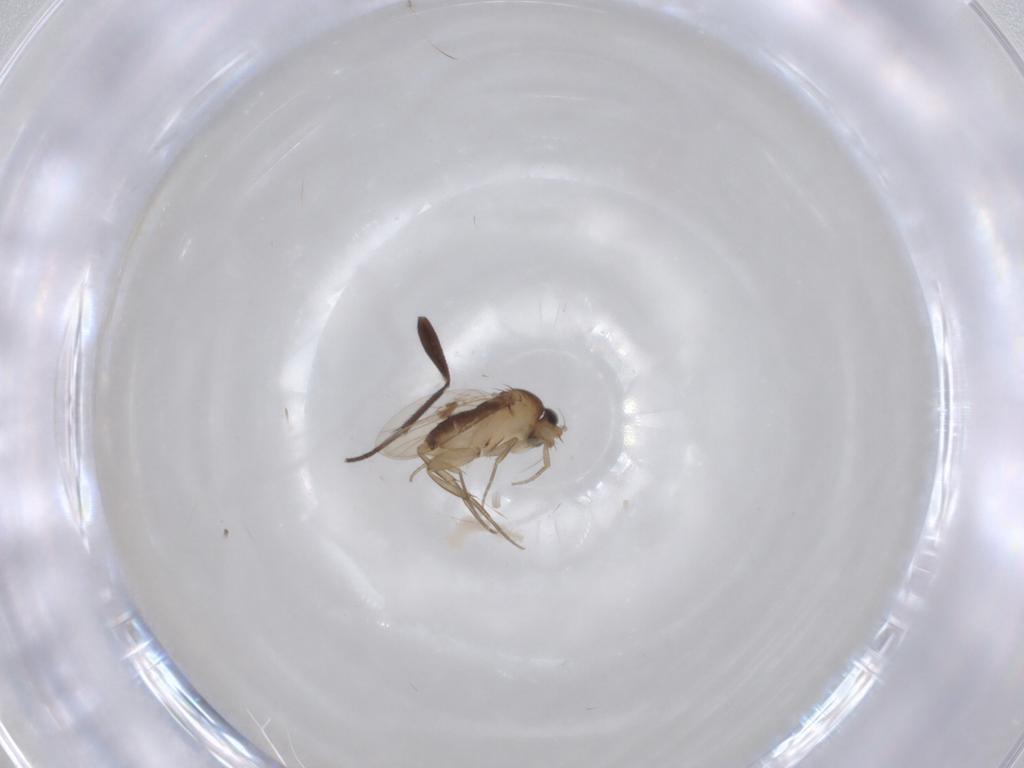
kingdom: Animalia
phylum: Arthropoda
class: Insecta
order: Diptera
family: Phoridae
